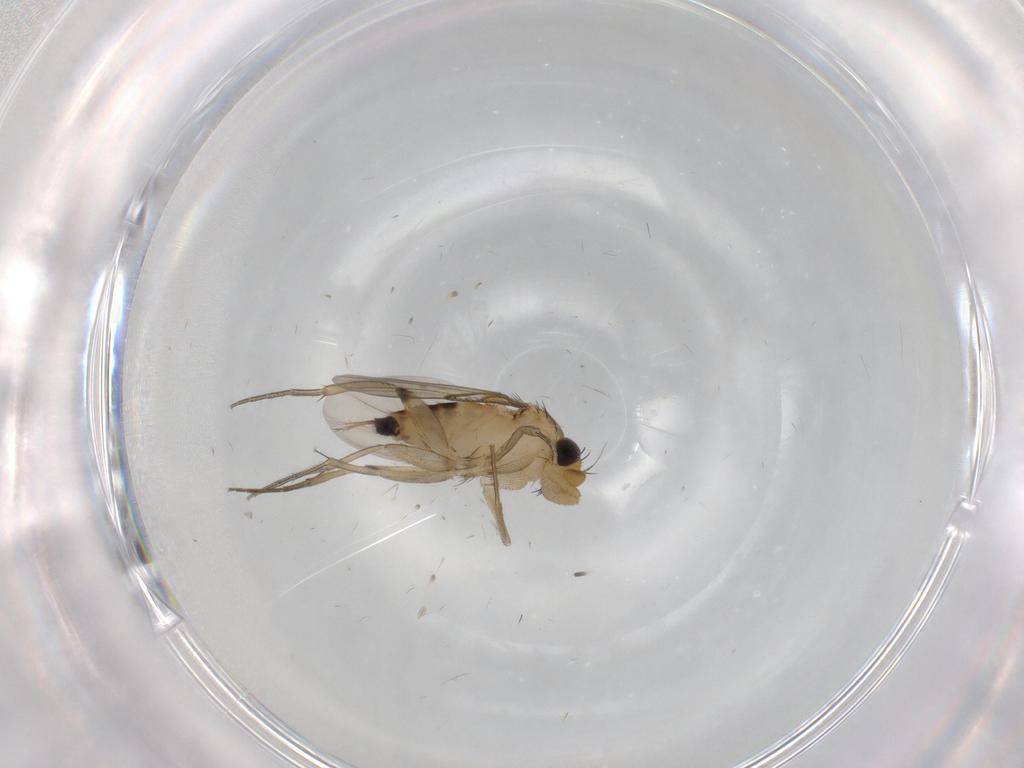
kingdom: Animalia
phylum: Arthropoda
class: Insecta
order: Diptera
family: Phoridae
